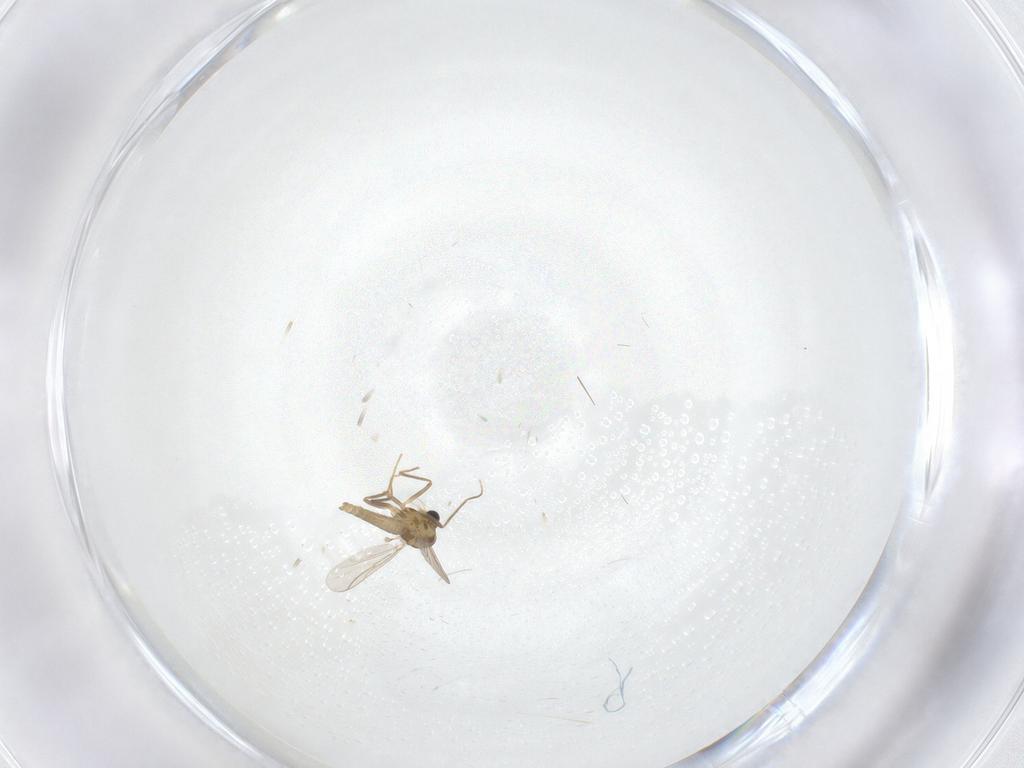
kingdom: Animalia
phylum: Arthropoda
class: Insecta
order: Diptera
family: Chironomidae
